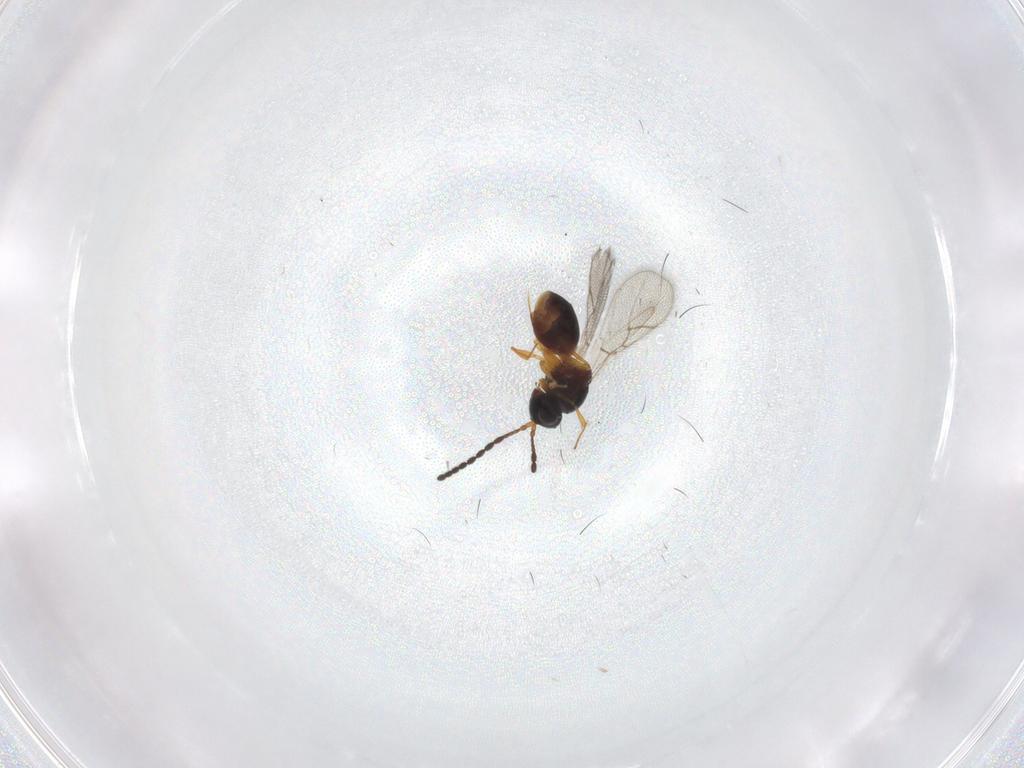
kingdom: Animalia
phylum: Arthropoda
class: Insecta
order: Hymenoptera
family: Figitidae
